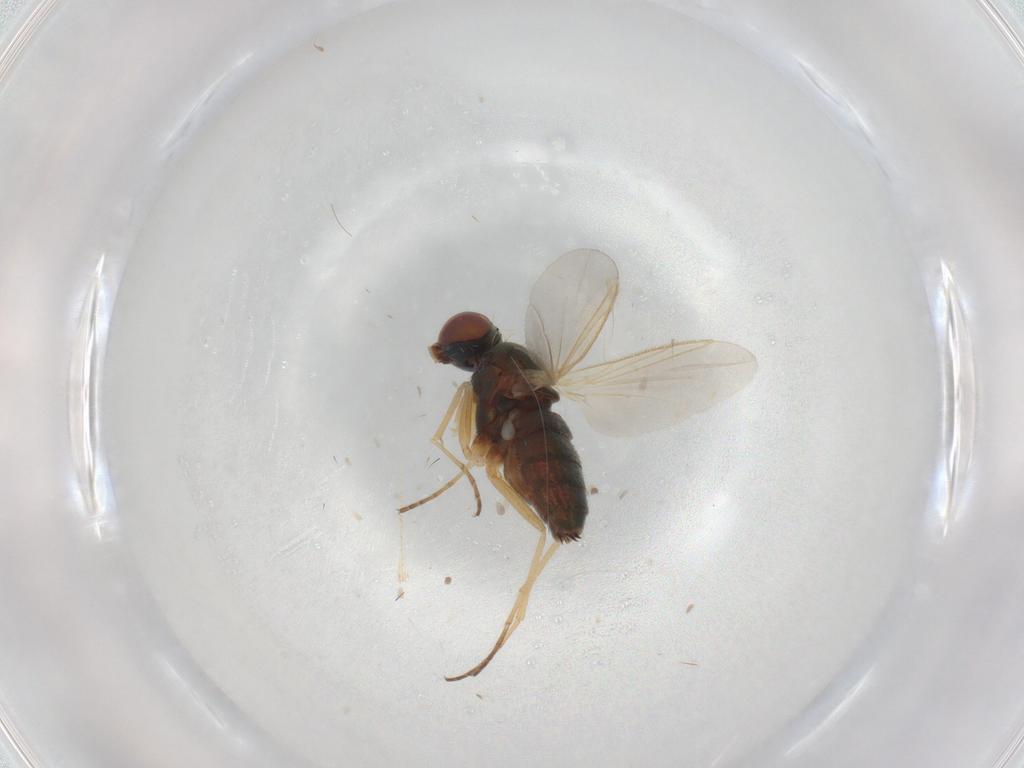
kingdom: Animalia
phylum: Arthropoda
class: Insecta
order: Diptera
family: Dolichopodidae
